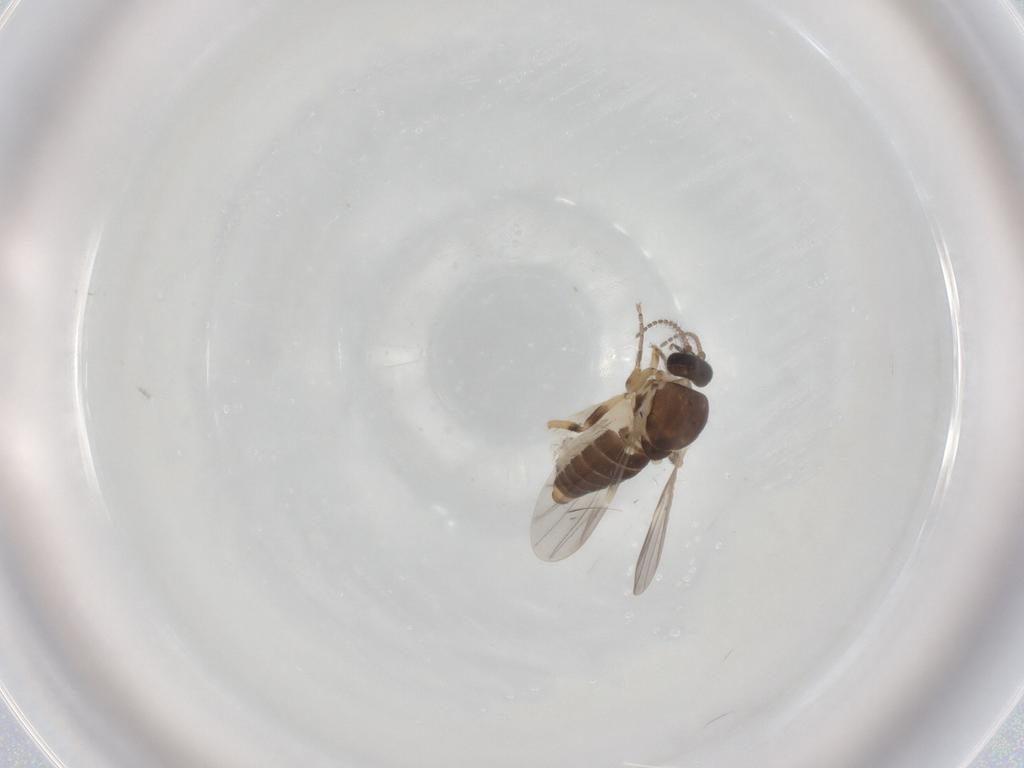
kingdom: Animalia
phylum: Arthropoda
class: Insecta
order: Diptera
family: Ceratopogonidae
